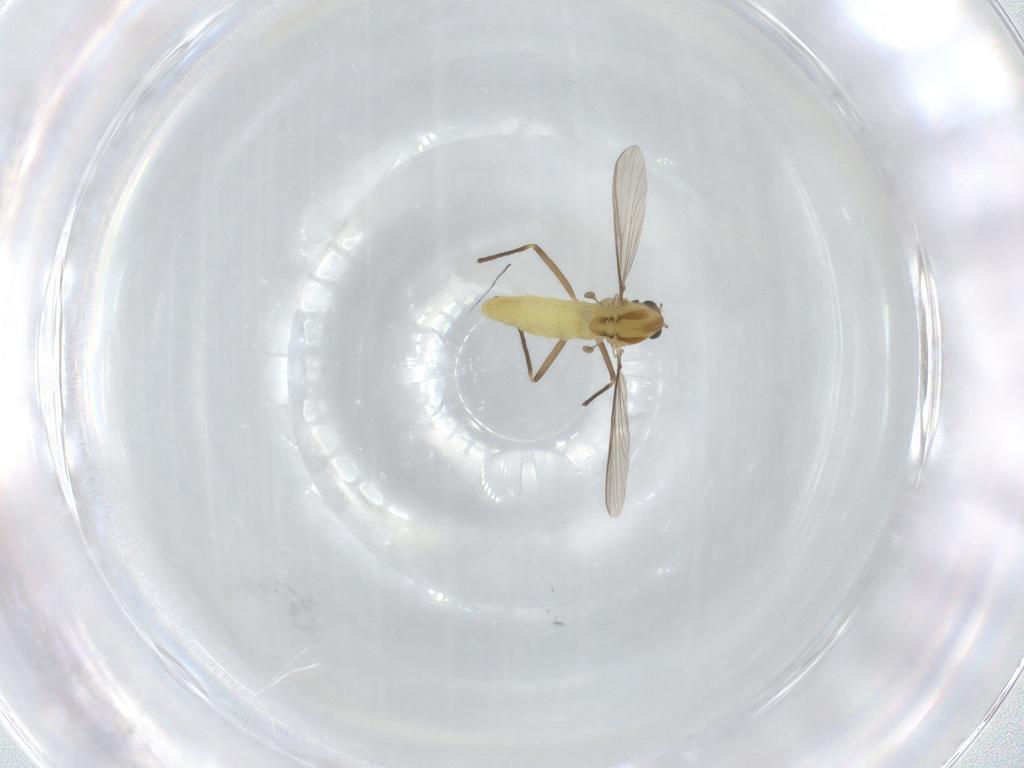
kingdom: Animalia
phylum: Arthropoda
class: Insecta
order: Diptera
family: Chironomidae
